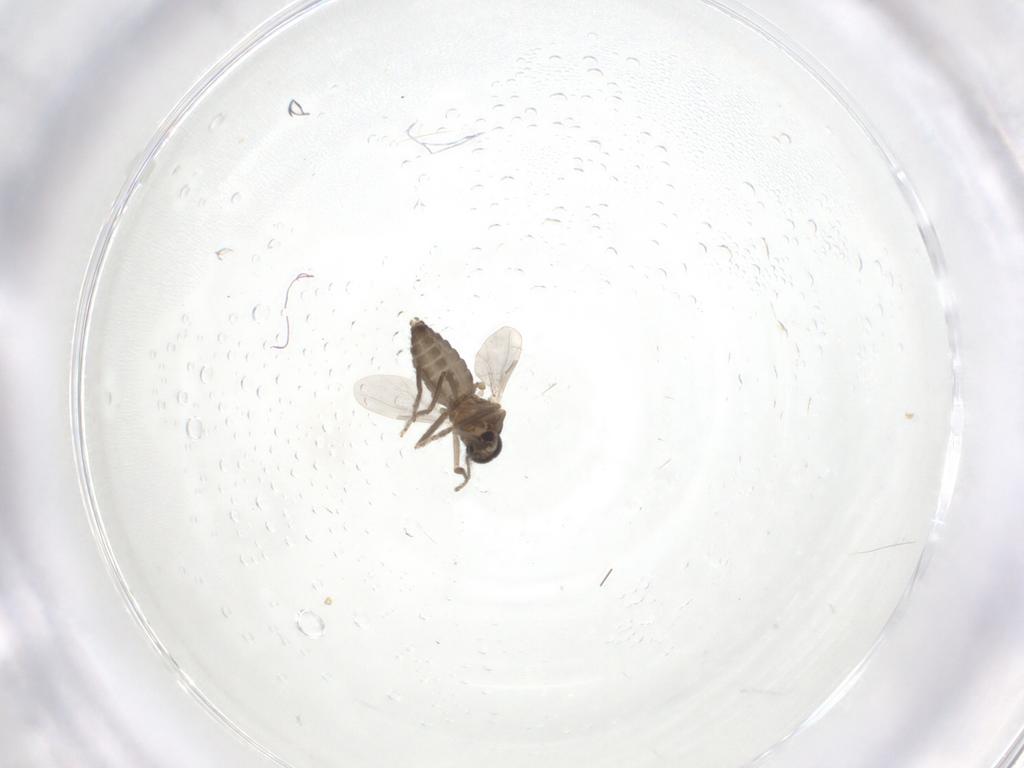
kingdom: Animalia
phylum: Arthropoda
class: Insecta
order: Diptera
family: Ceratopogonidae
